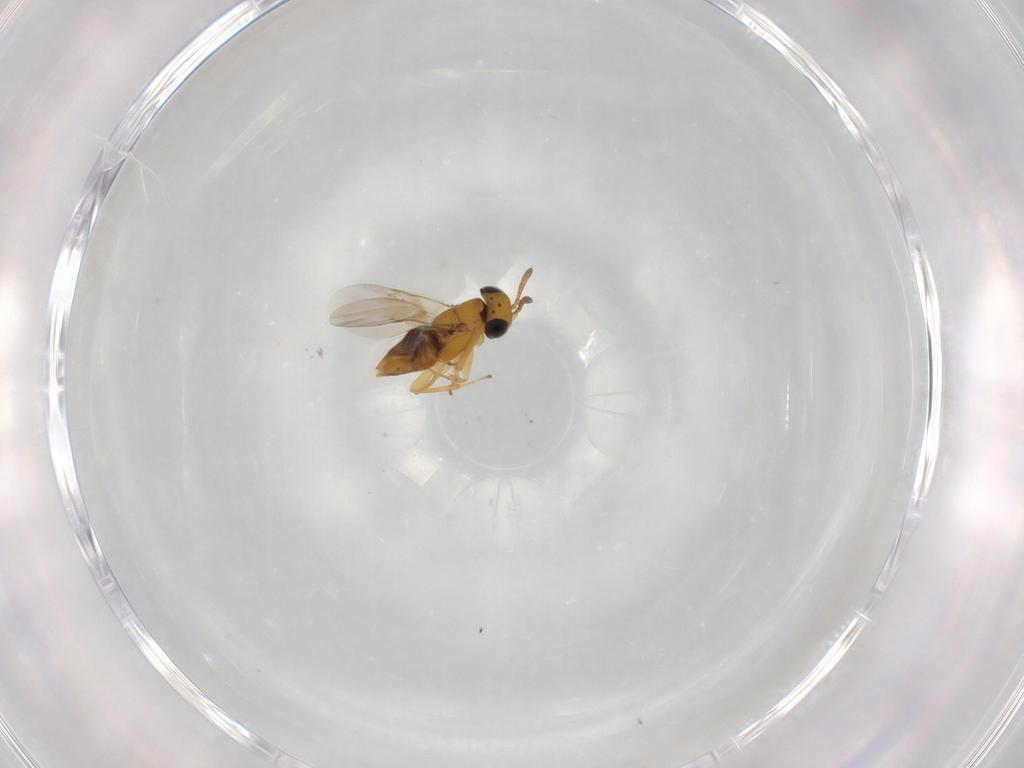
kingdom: Animalia
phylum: Arthropoda
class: Insecta
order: Hymenoptera
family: Encyrtidae
